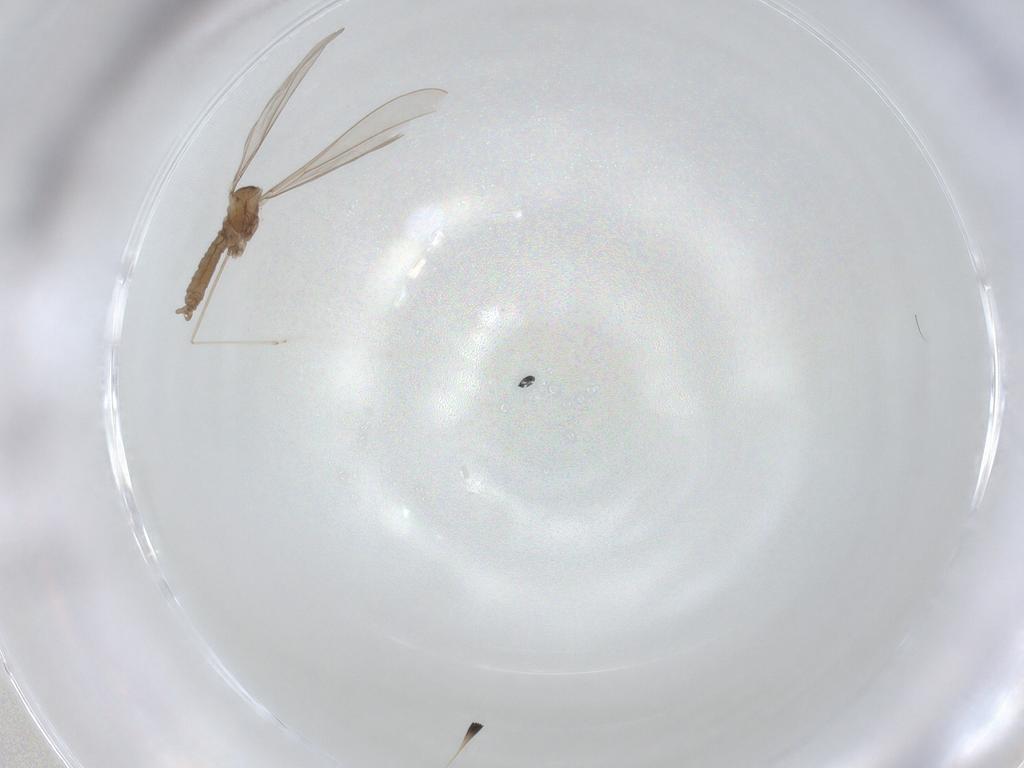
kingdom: Animalia
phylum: Arthropoda
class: Insecta
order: Diptera
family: Cecidomyiidae
